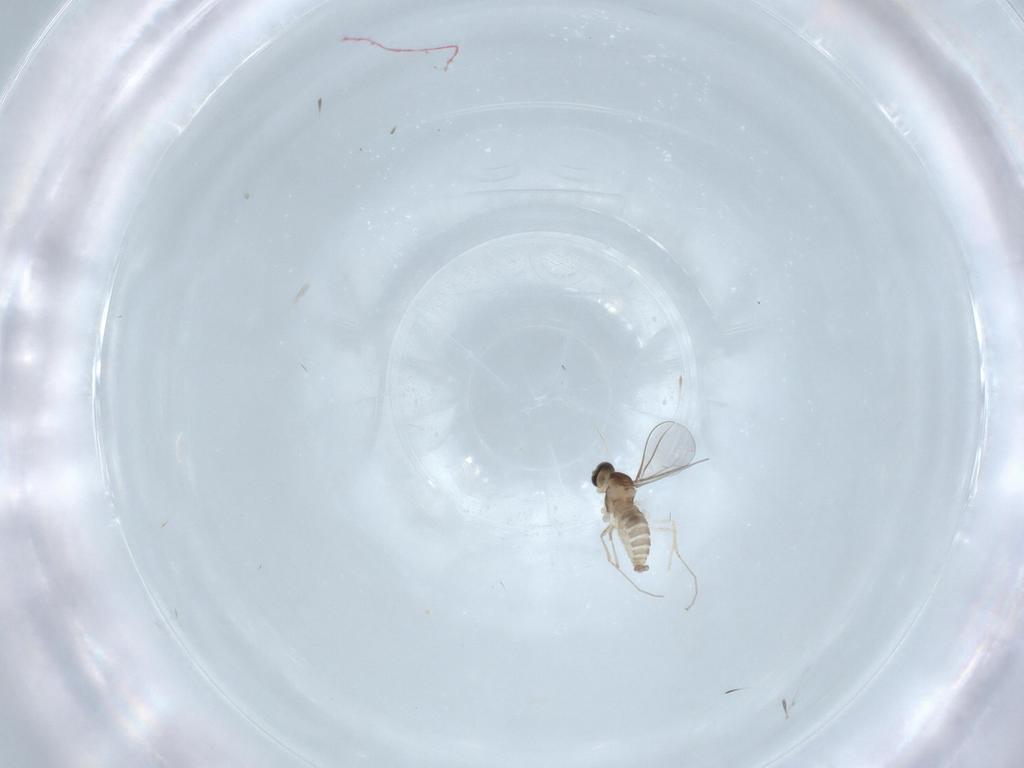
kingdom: Animalia
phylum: Arthropoda
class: Insecta
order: Diptera
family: Cecidomyiidae
